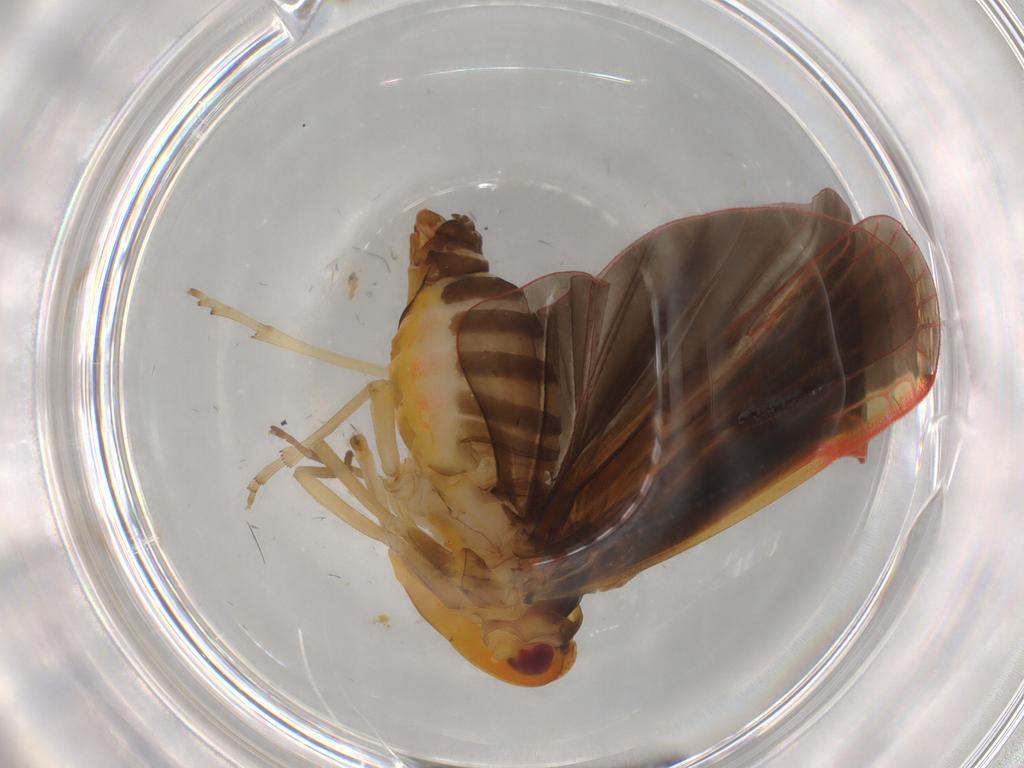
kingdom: Animalia
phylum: Arthropoda
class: Insecta
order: Hemiptera
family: Derbidae
